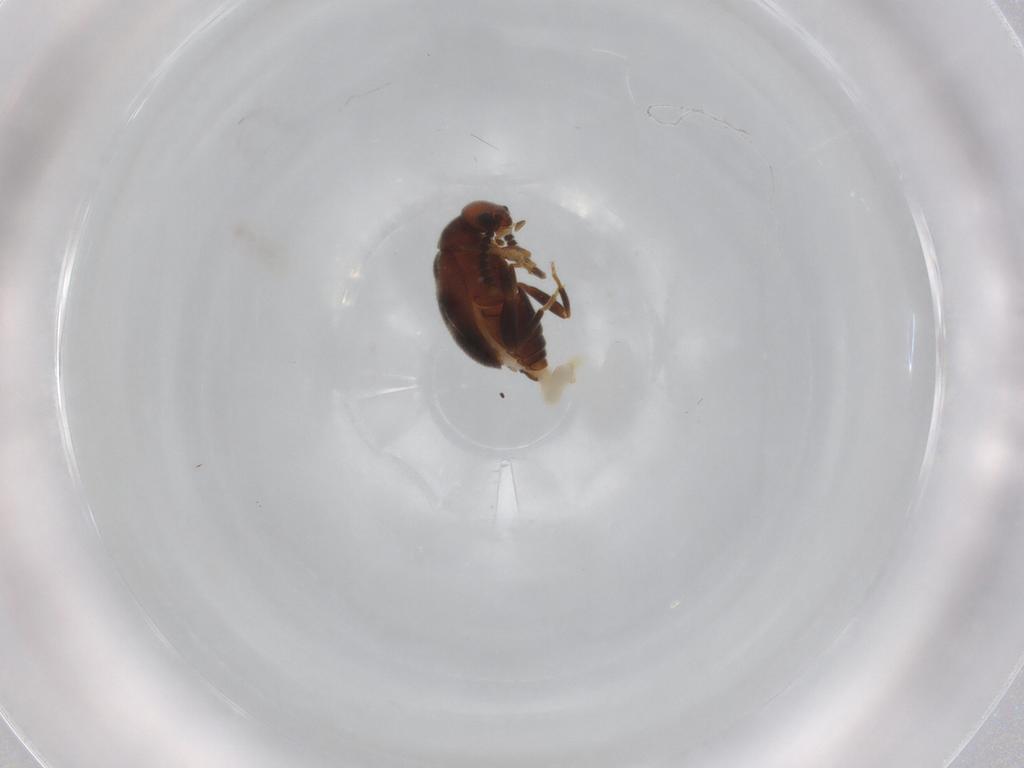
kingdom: Animalia
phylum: Arthropoda
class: Insecta
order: Coleoptera
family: Aderidae
